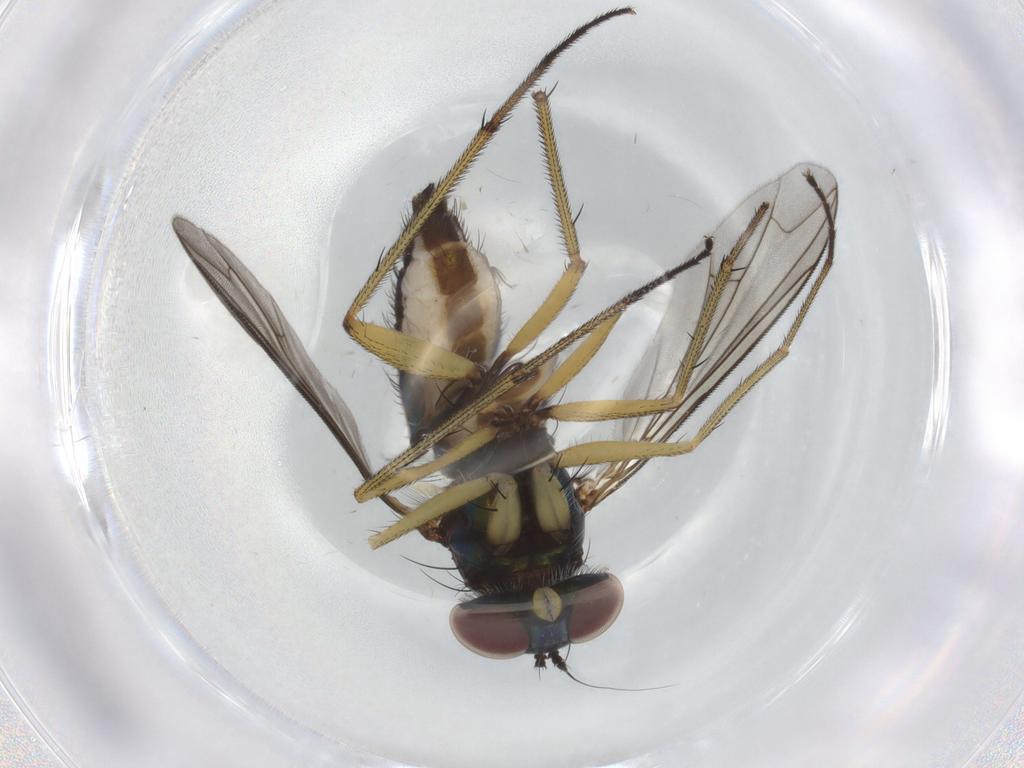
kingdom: Animalia
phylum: Arthropoda
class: Insecta
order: Diptera
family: Dolichopodidae
